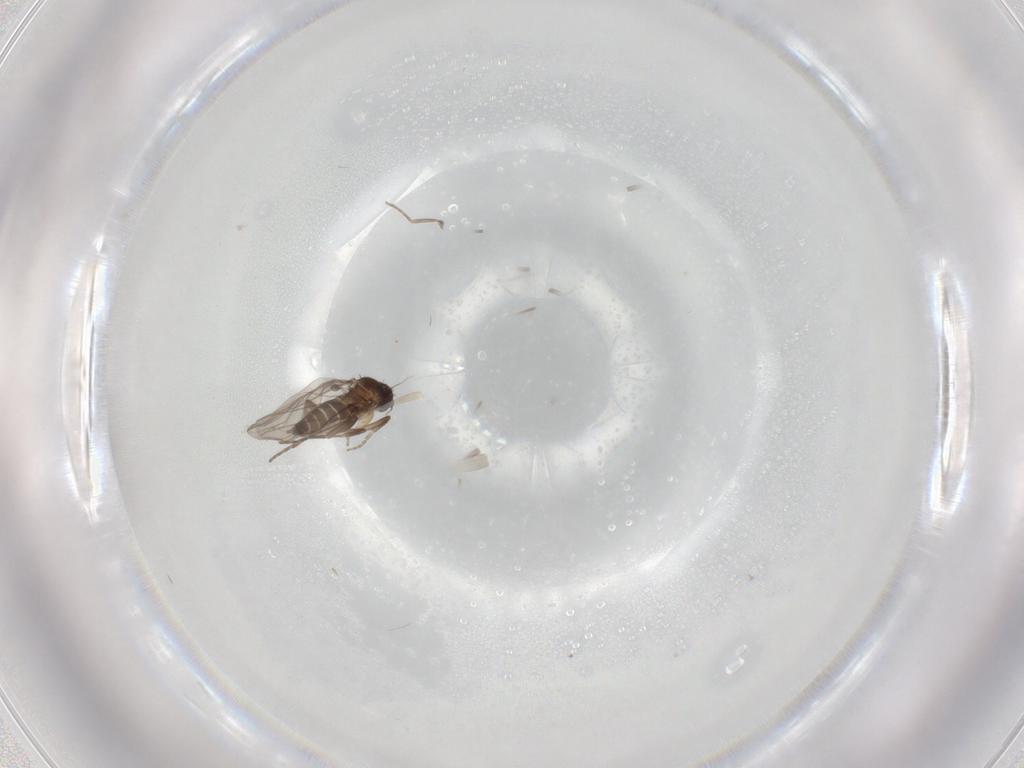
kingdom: Animalia
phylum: Arthropoda
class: Insecta
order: Diptera
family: Phoridae
